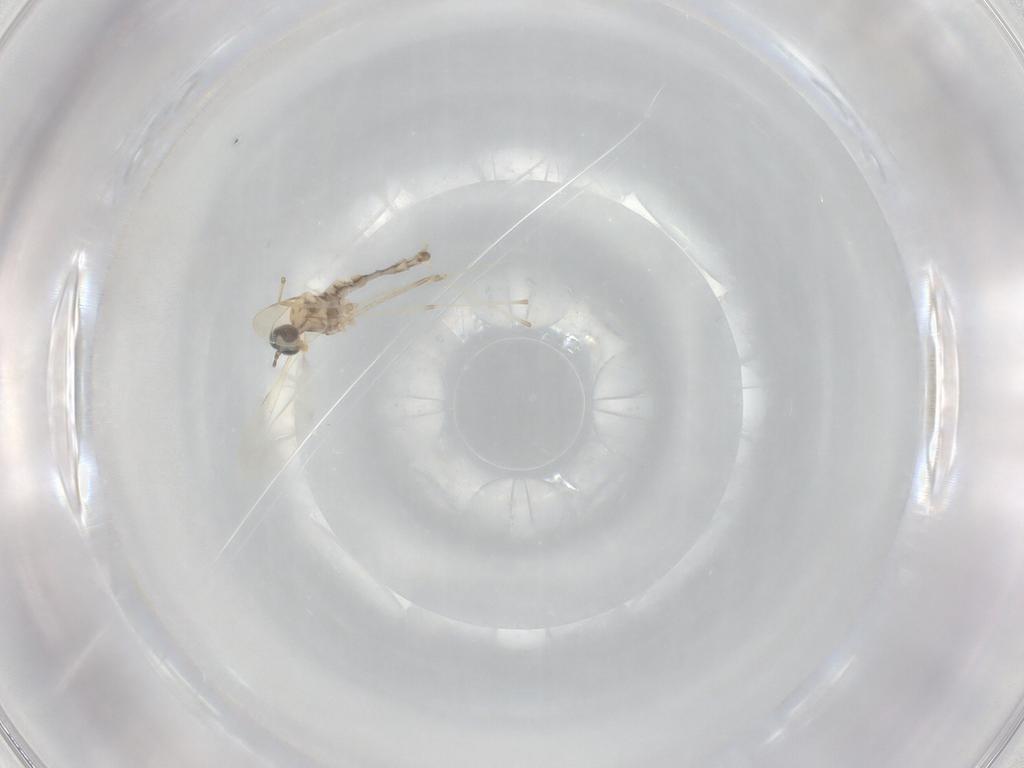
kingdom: Animalia
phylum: Arthropoda
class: Insecta
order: Diptera
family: Cecidomyiidae
